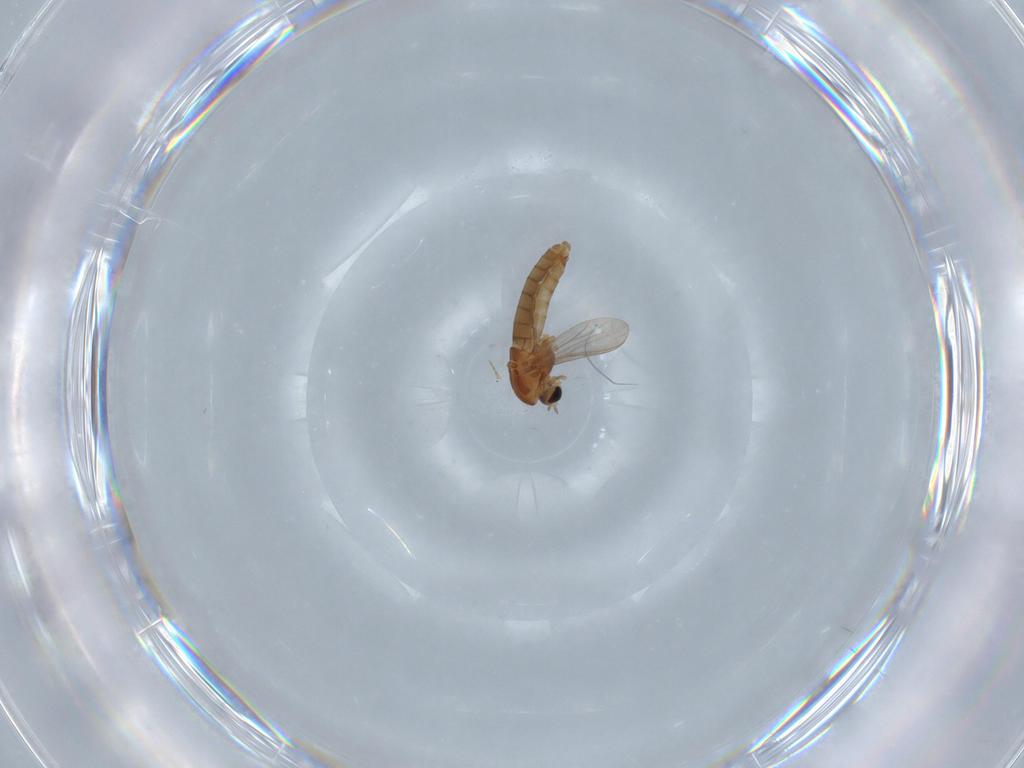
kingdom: Animalia
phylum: Arthropoda
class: Insecta
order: Diptera
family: Chironomidae
